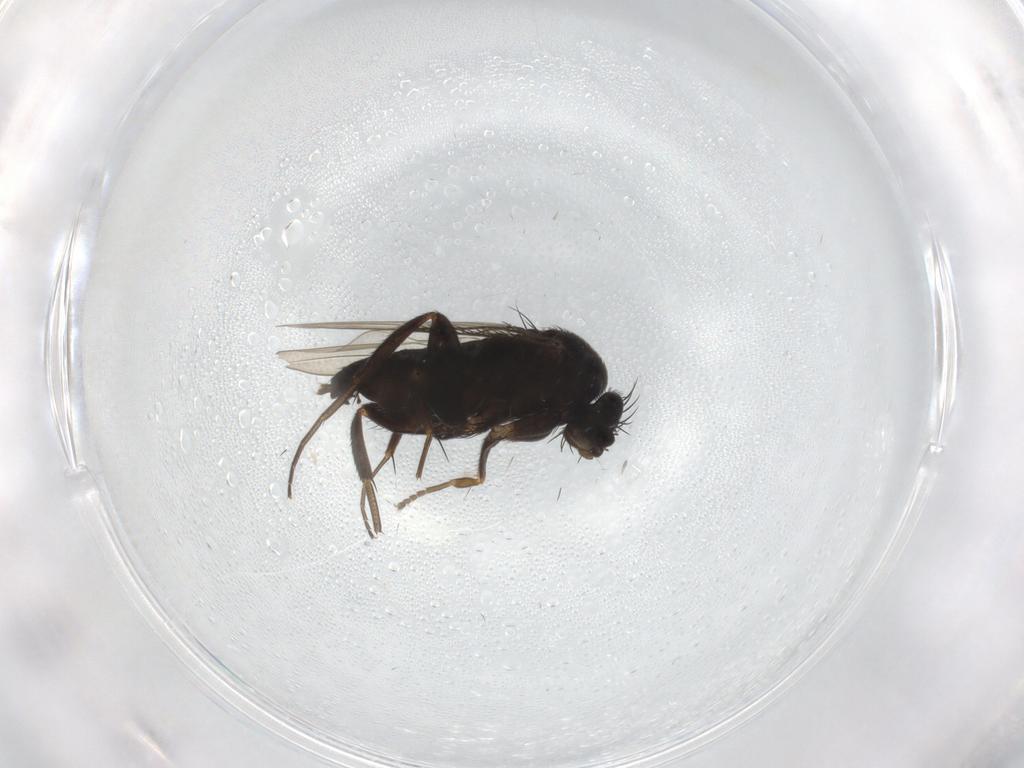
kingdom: Animalia
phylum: Arthropoda
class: Insecta
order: Diptera
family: Phoridae
